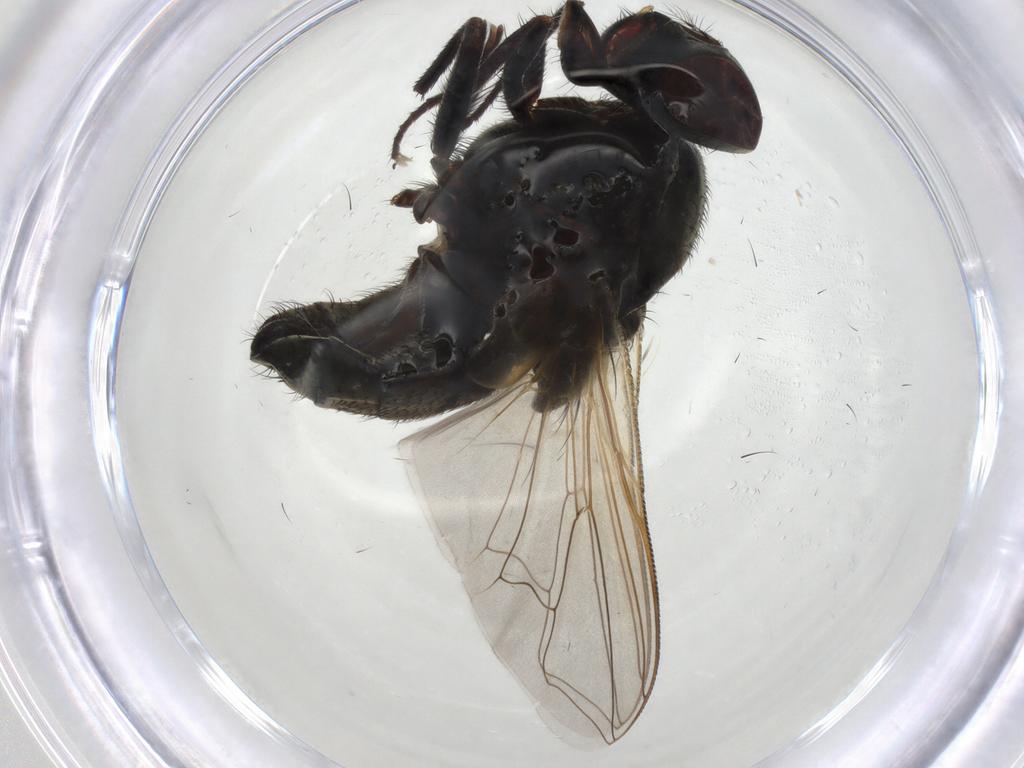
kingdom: Animalia
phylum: Arthropoda
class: Insecta
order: Diptera
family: Muscidae
